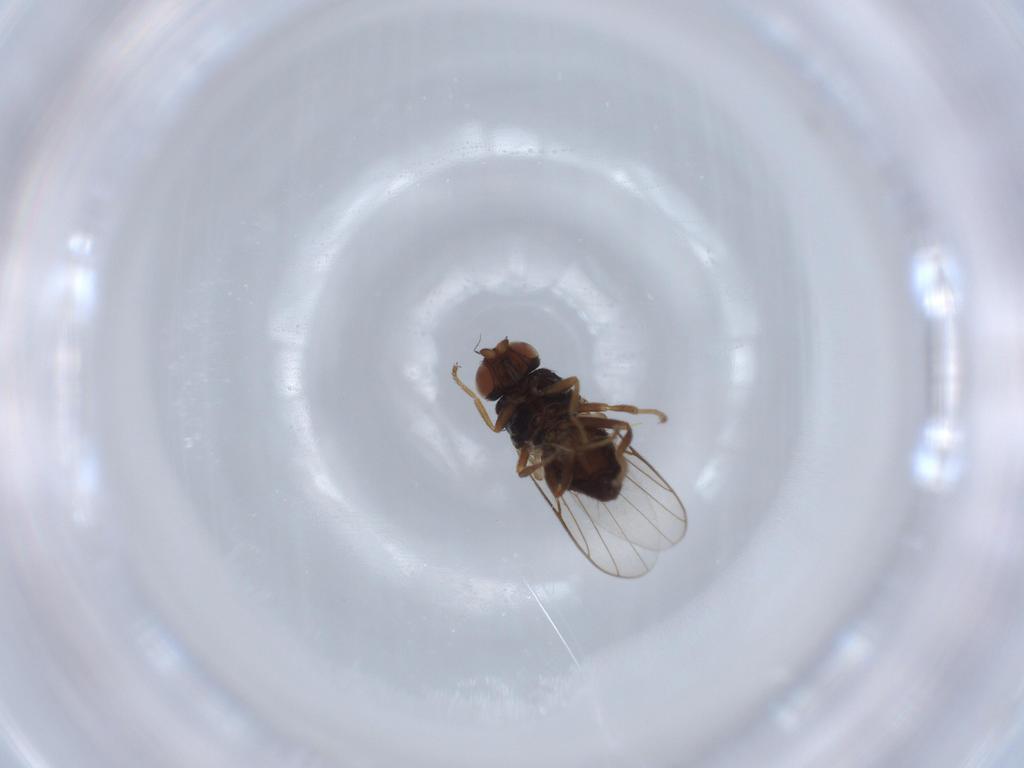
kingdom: Animalia
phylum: Arthropoda
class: Insecta
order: Diptera
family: Chloropidae
